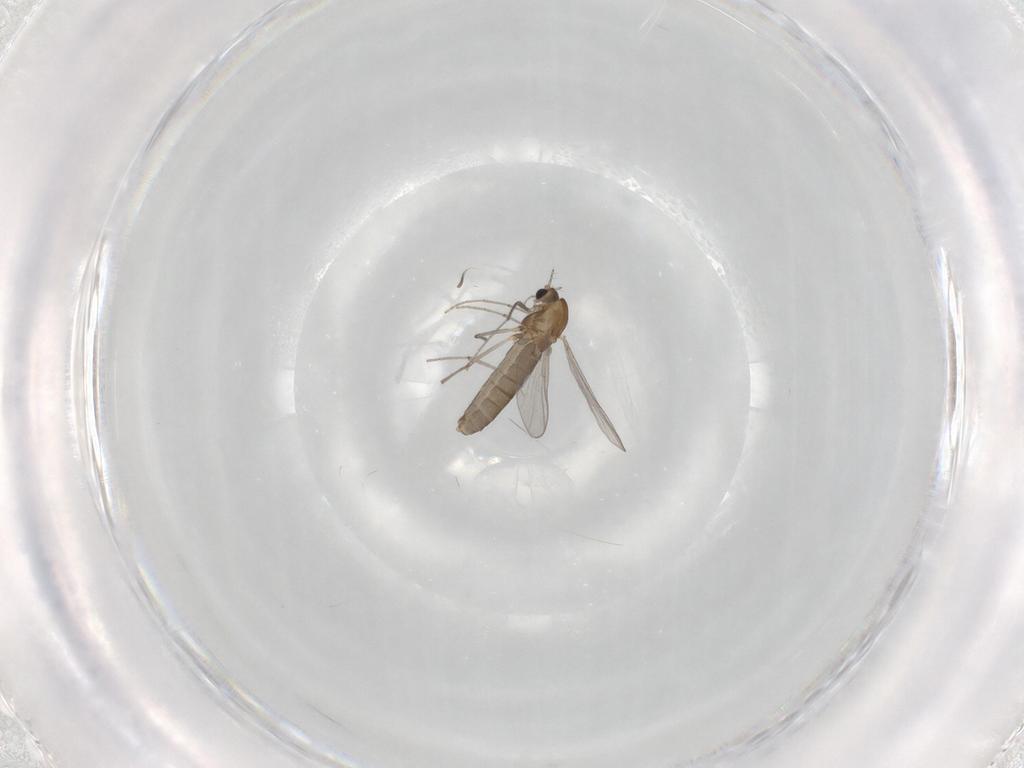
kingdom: Animalia
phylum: Arthropoda
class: Insecta
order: Diptera
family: Chironomidae
